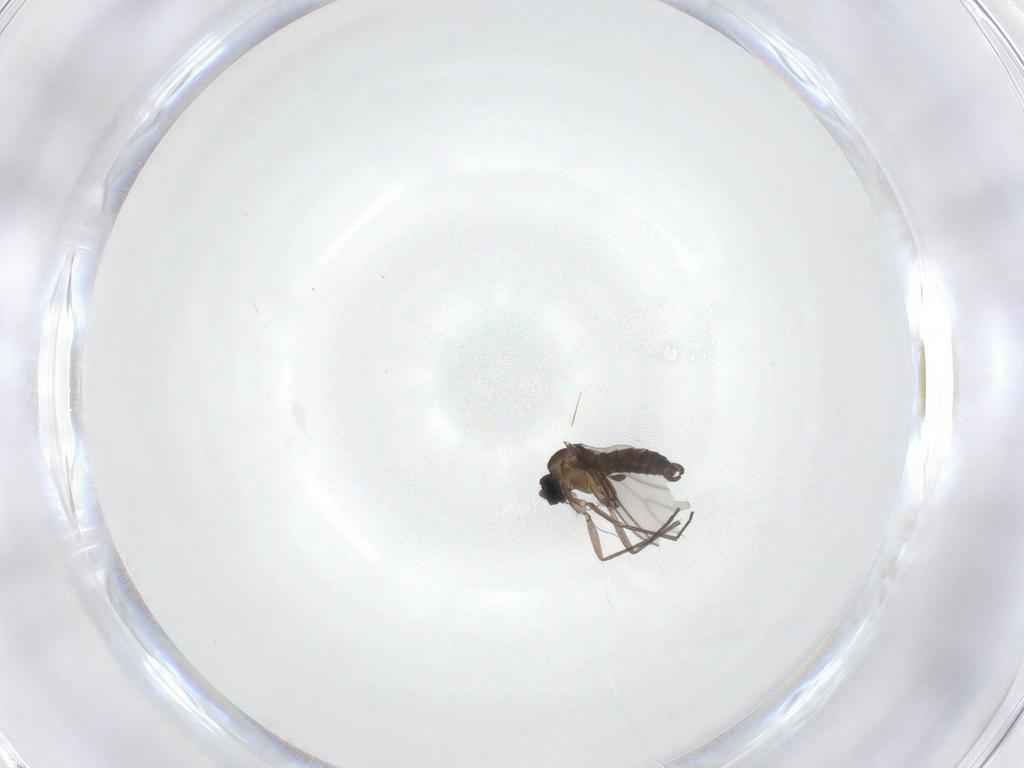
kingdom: Animalia
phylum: Arthropoda
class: Insecta
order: Diptera
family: Sciaridae
